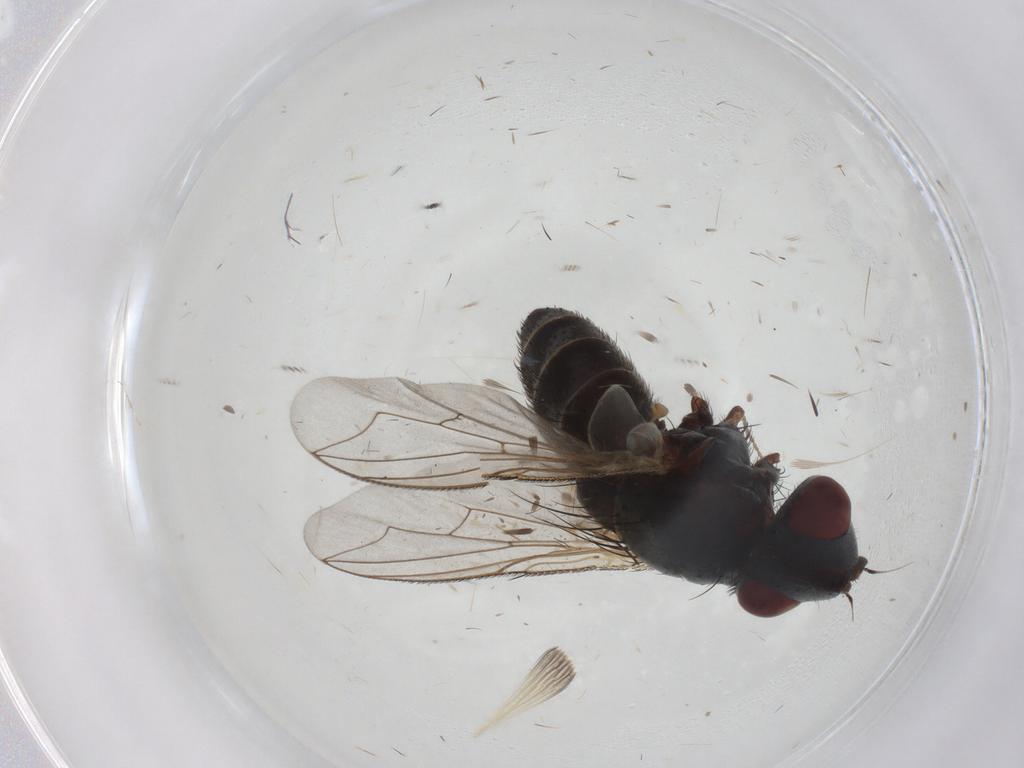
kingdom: Animalia
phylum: Arthropoda
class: Insecta
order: Diptera
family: Sarcophagidae
